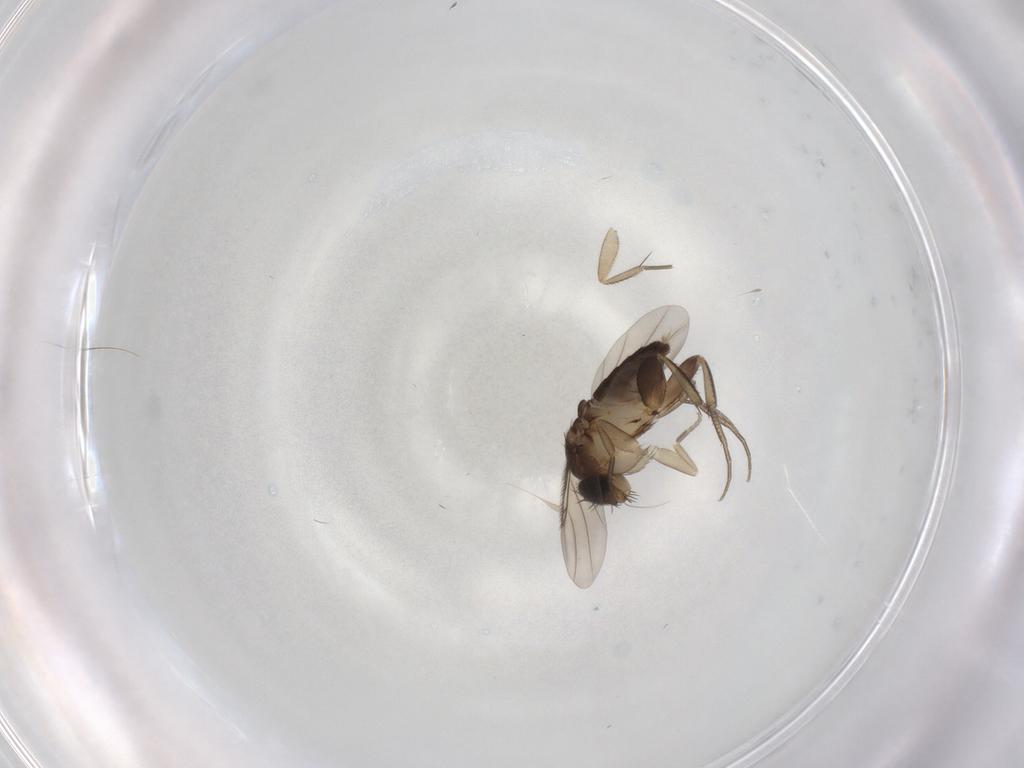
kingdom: Animalia
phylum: Arthropoda
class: Insecta
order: Diptera
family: Phoridae
